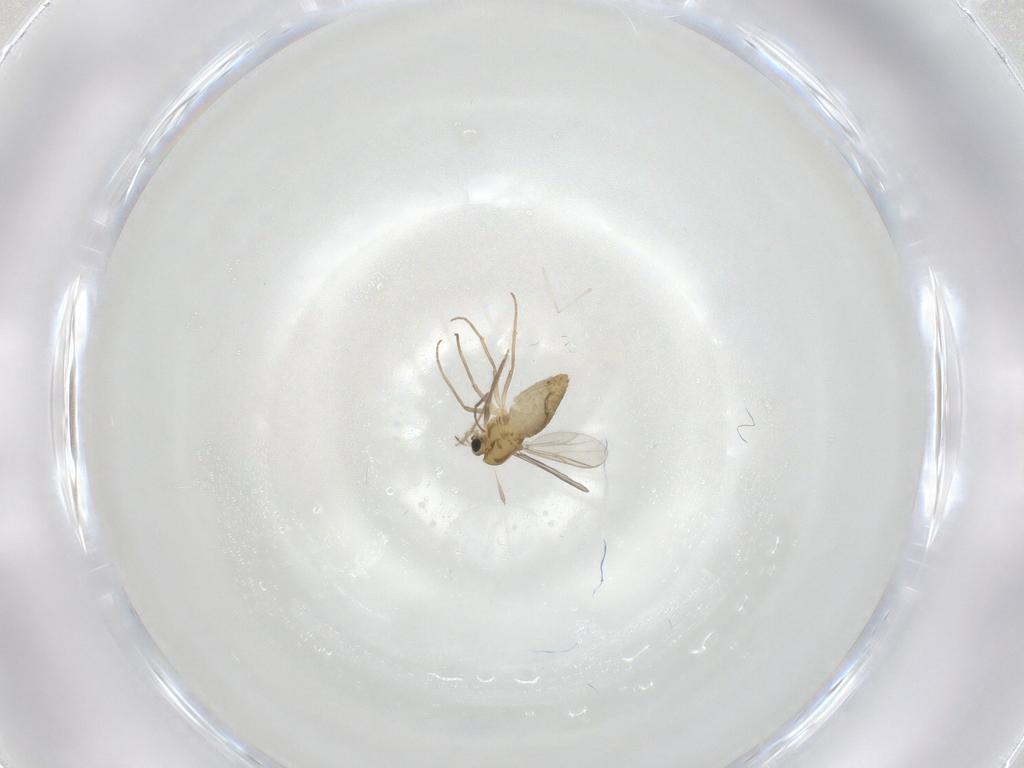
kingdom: Animalia
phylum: Arthropoda
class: Insecta
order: Diptera
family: Chironomidae
